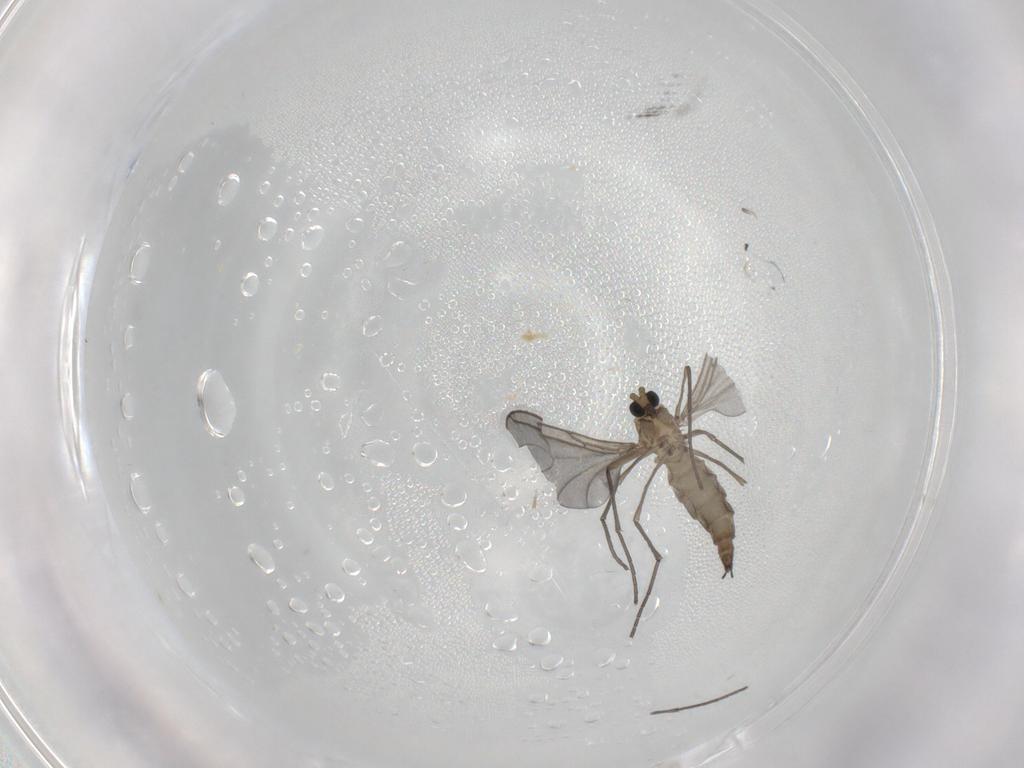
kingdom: Animalia
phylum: Arthropoda
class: Insecta
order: Diptera
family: Sciaridae
